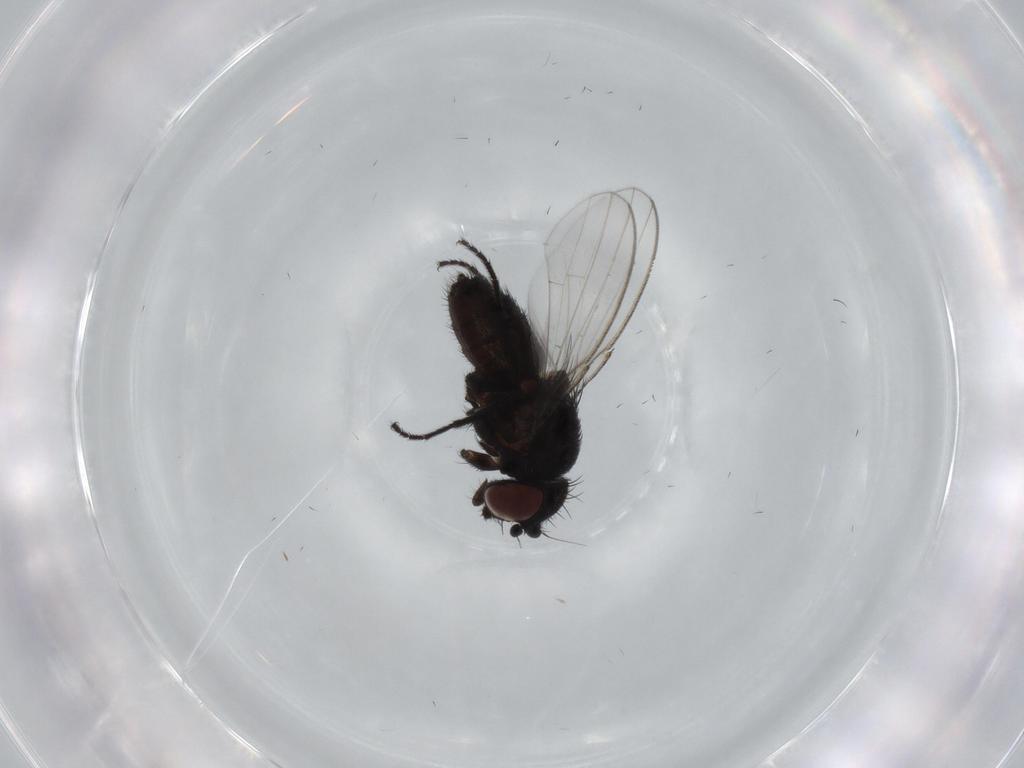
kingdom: Animalia
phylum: Arthropoda
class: Insecta
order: Diptera
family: Milichiidae
